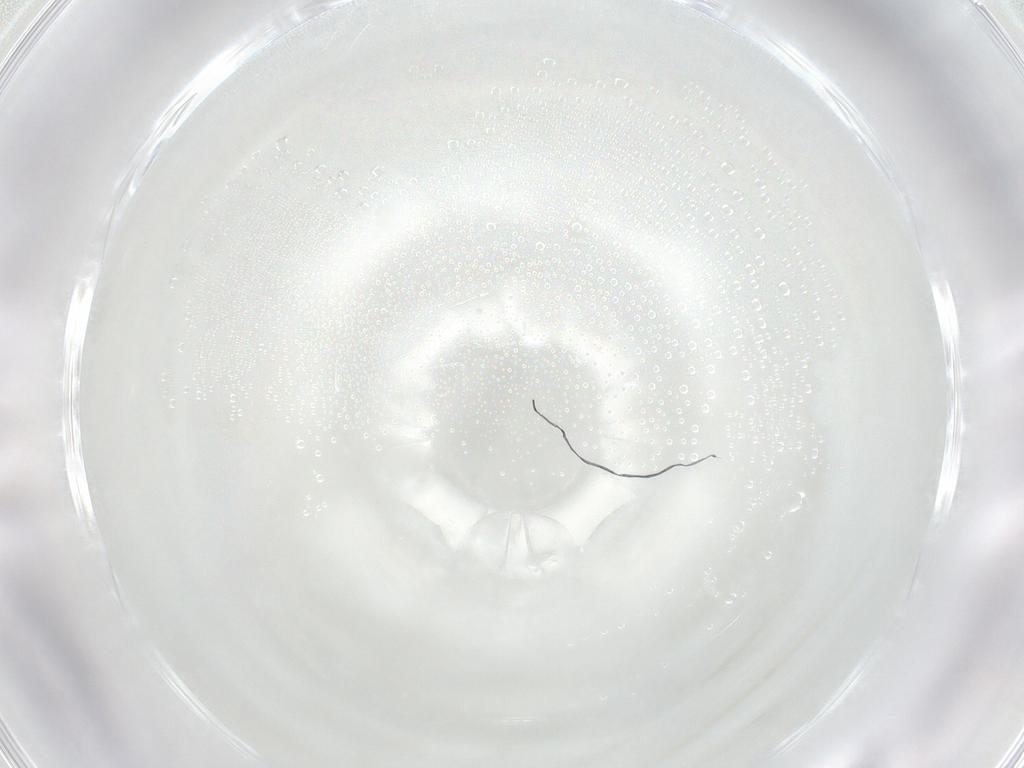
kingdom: Animalia
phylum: Arthropoda
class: Arachnida
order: Trombidiformes
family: Erythraeidae
